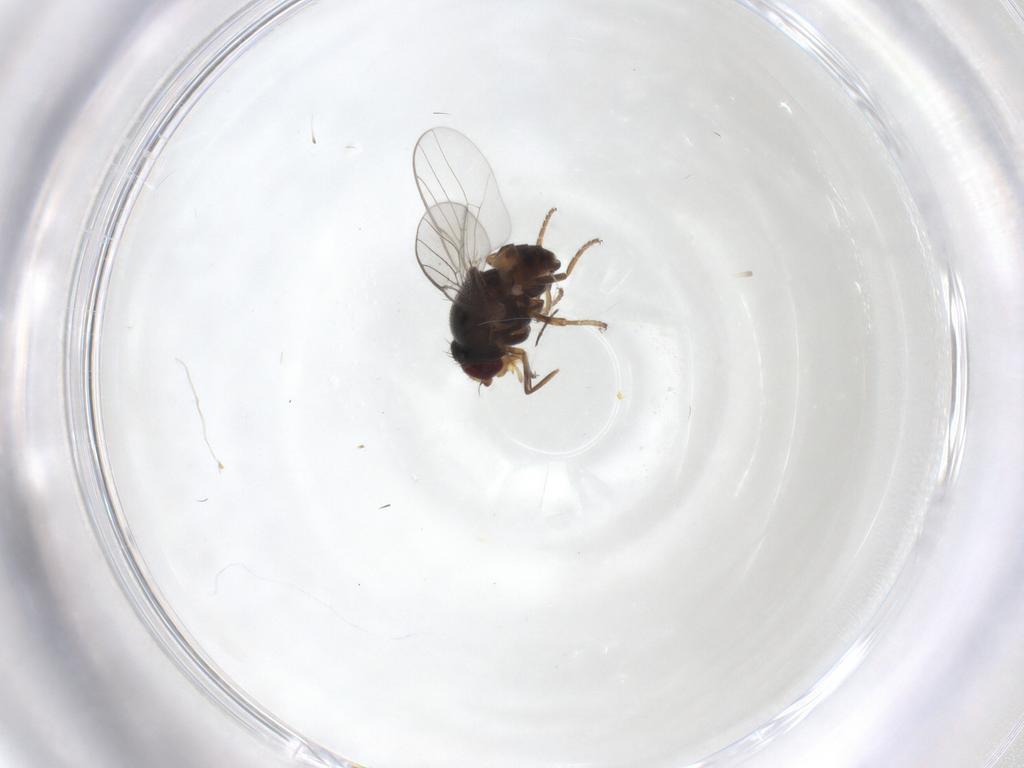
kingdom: Animalia
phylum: Arthropoda
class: Insecta
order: Diptera
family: Chloropidae
